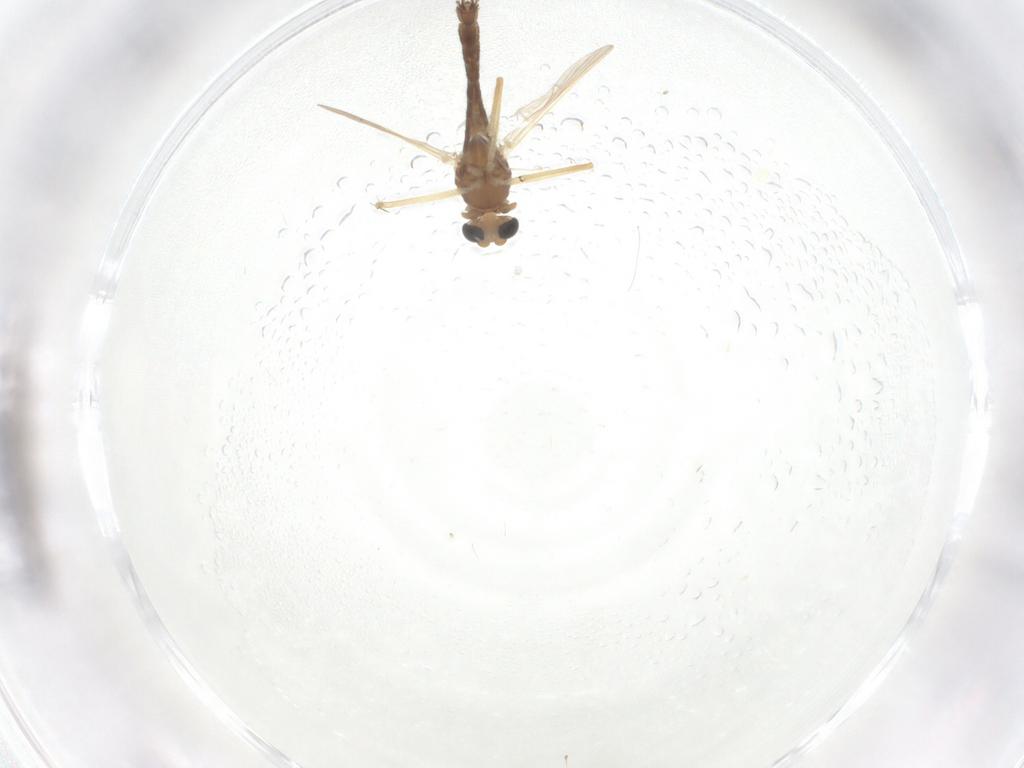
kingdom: Animalia
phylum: Arthropoda
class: Insecta
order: Diptera
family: Chironomidae
